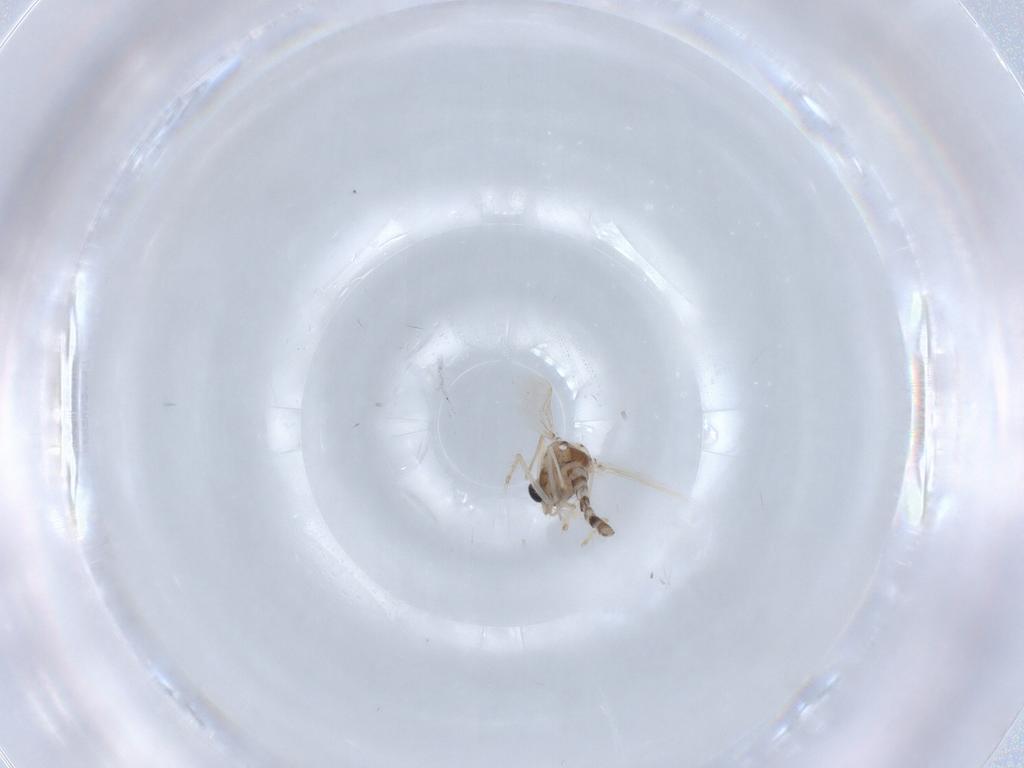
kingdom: Animalia
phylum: Arthropoda
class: Insecta
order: Diptera
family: Chironomidae
